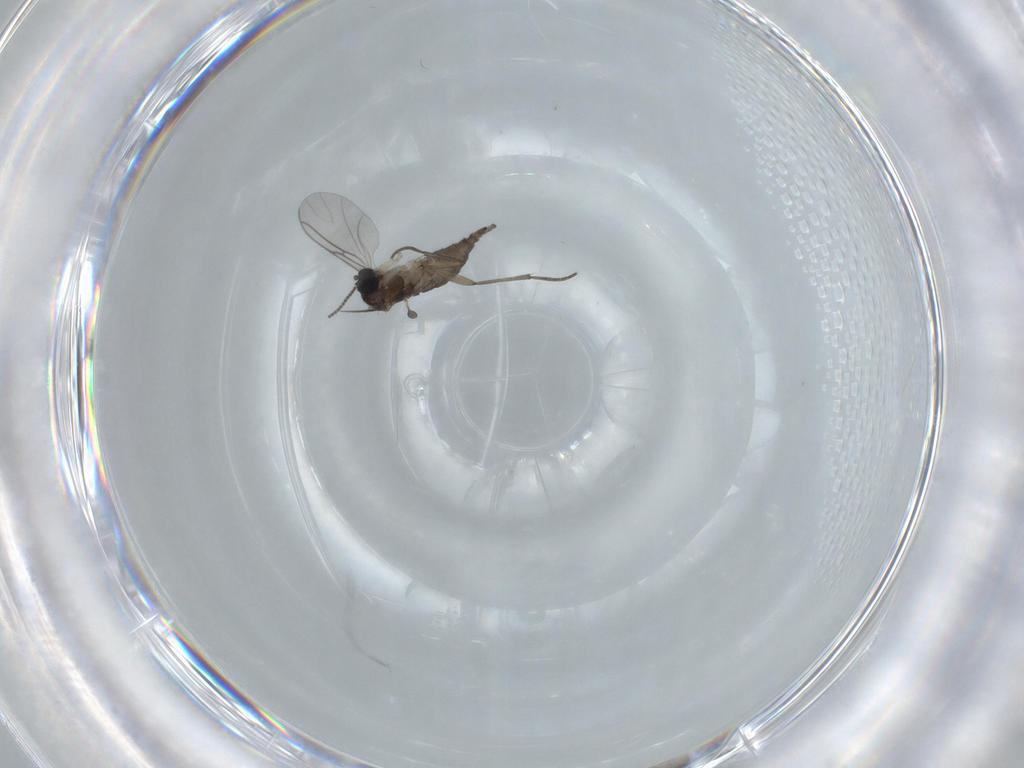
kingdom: Animalia
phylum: Arthropoda
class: Insecta
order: Diptera
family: Sciaridae
